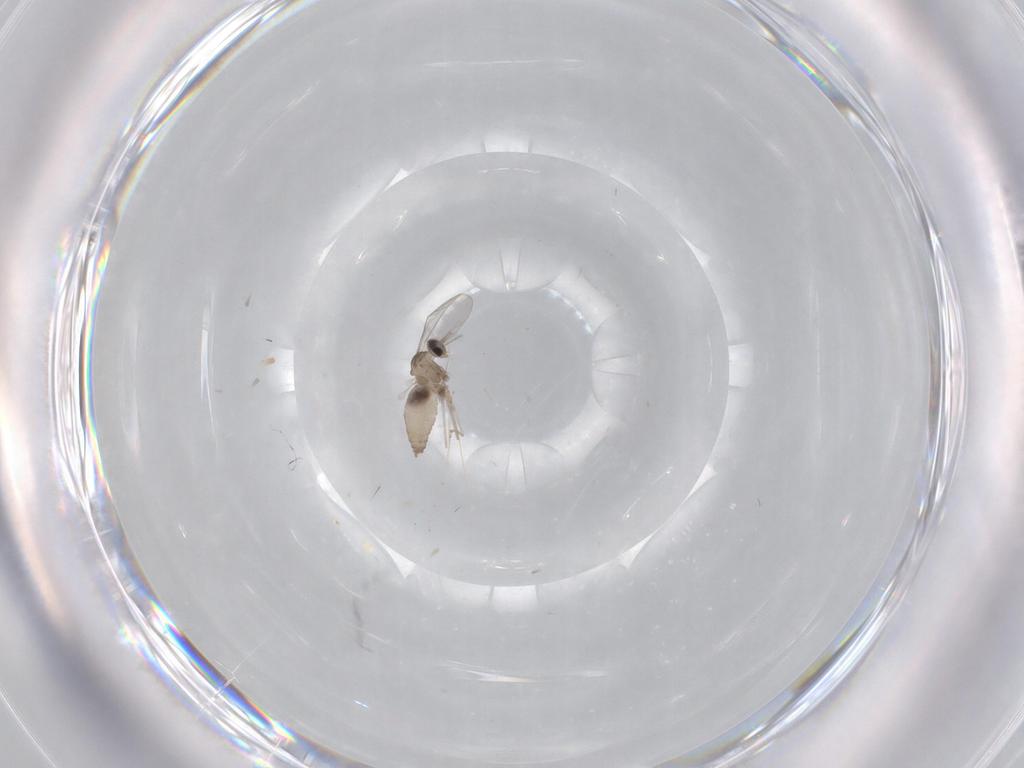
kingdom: Animalia
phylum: Arthropoda
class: Insecta
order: Diptera
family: Cecidomyiidae
